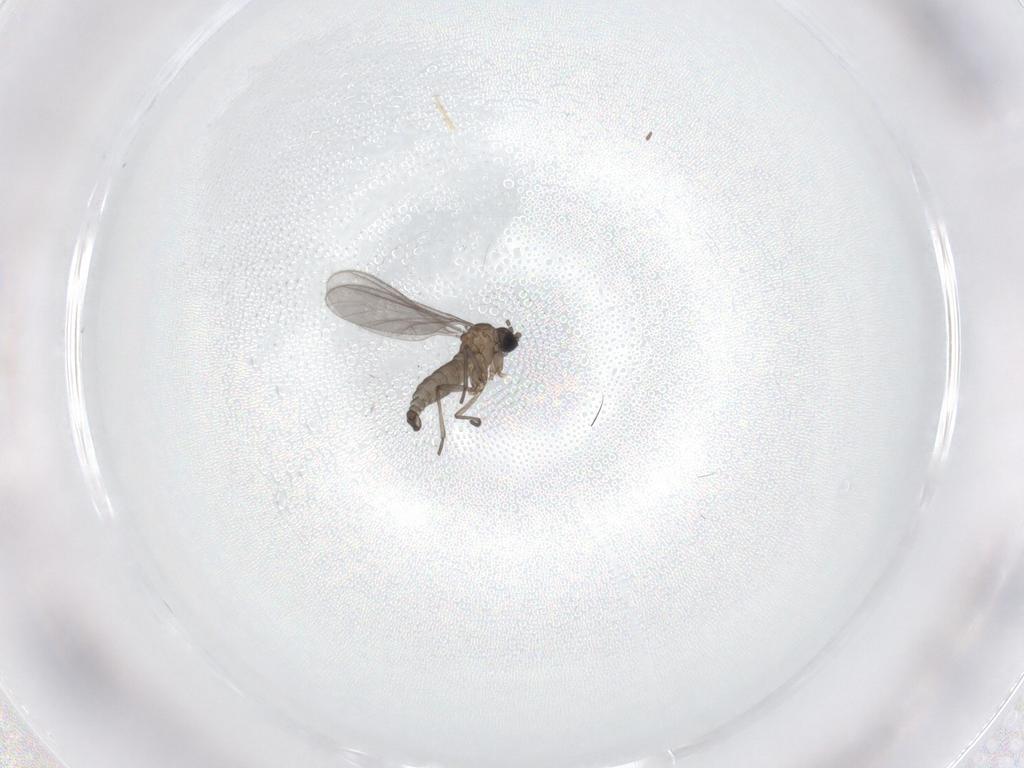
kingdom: Animalia
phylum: Arthropoda
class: Insecta
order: Diptera
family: Sciaridae
